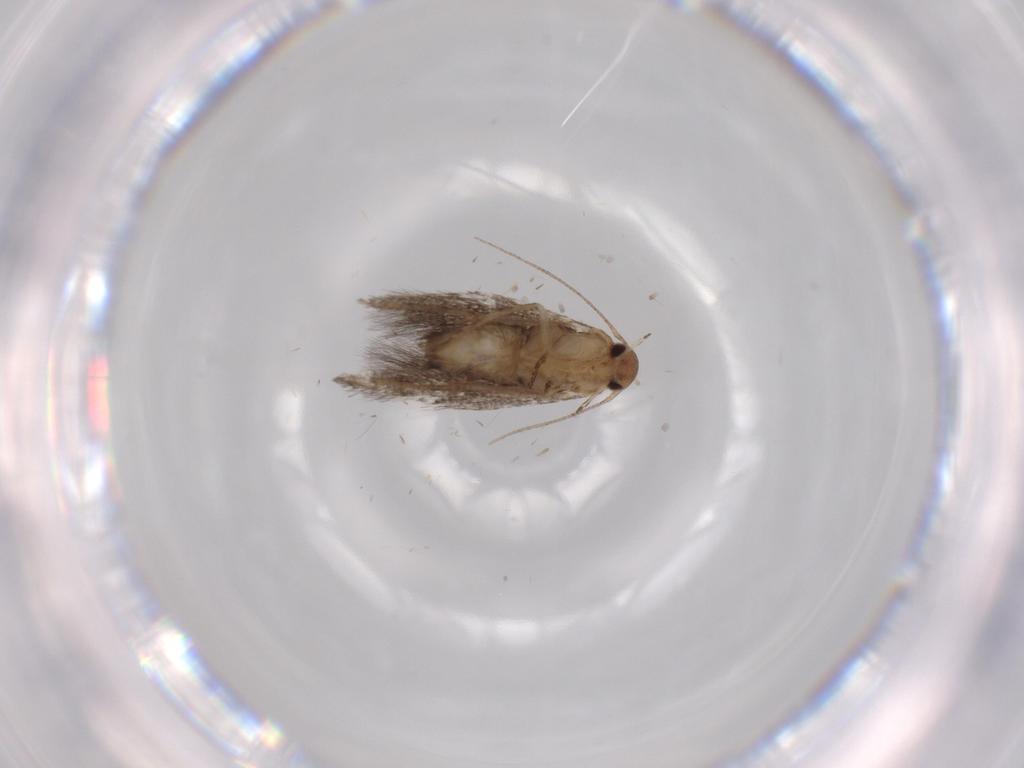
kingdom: Animalia
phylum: Arthropoda
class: Insecta
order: Lepidoptera
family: Gelechiidae
